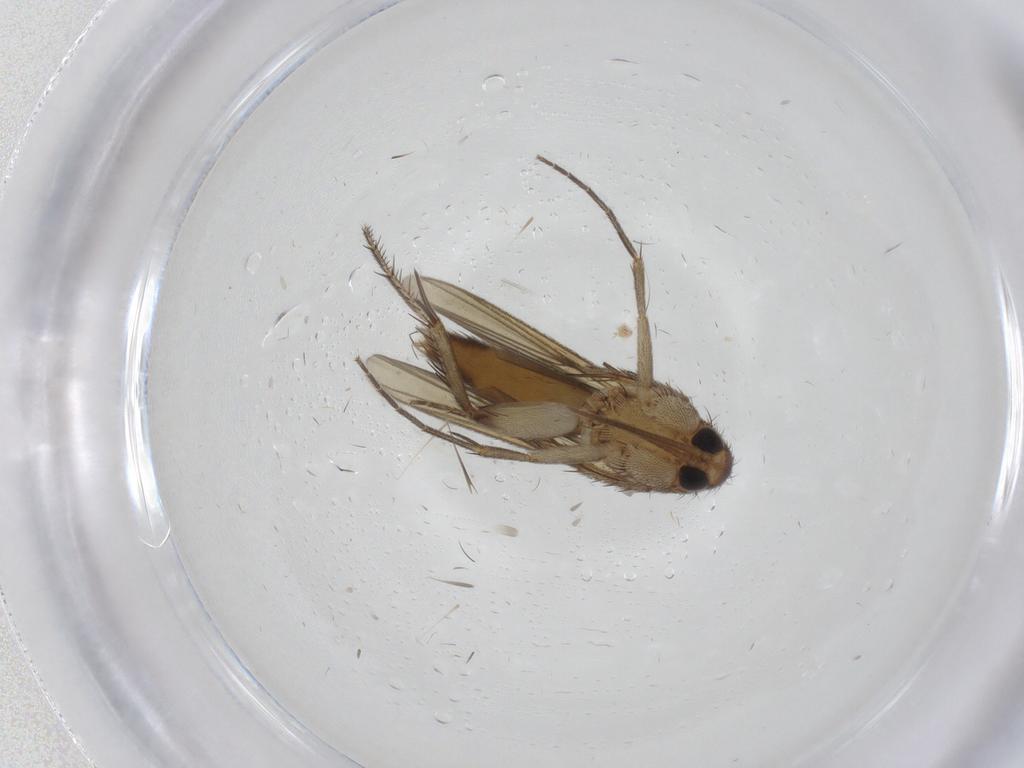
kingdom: Animalia
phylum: Arthropoda
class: Insecta
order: Diptera
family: Mycetophilidae
